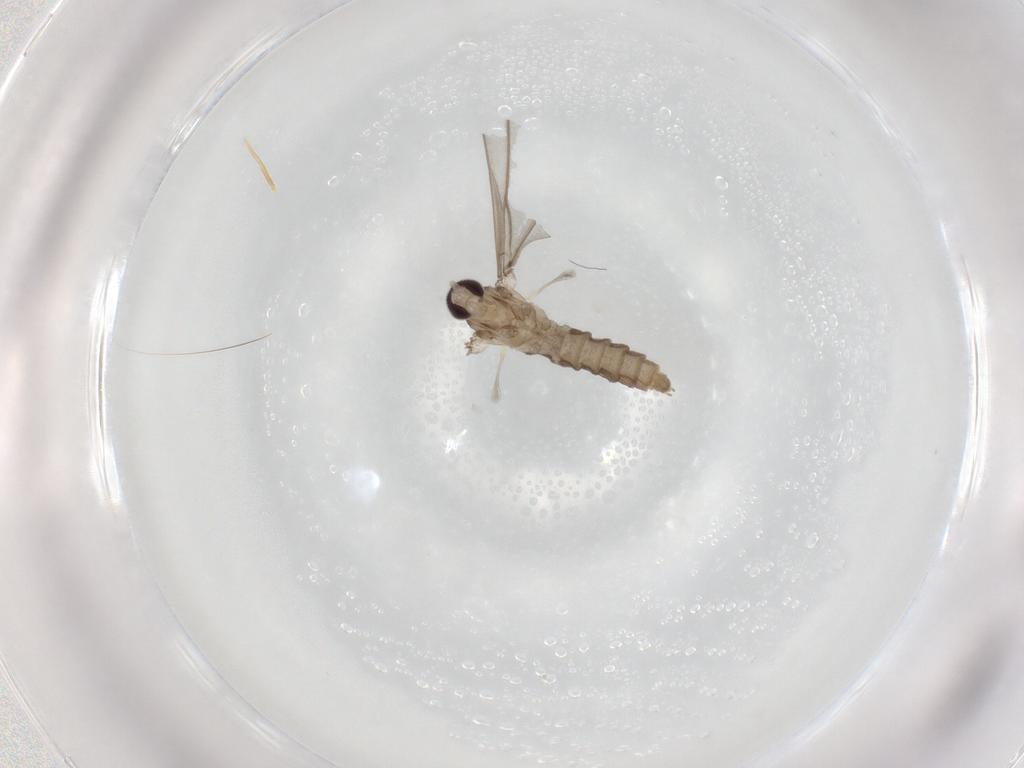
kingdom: Animalia
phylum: Arthropoda
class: Insecta
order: Diptera
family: Cecidomyiidae
